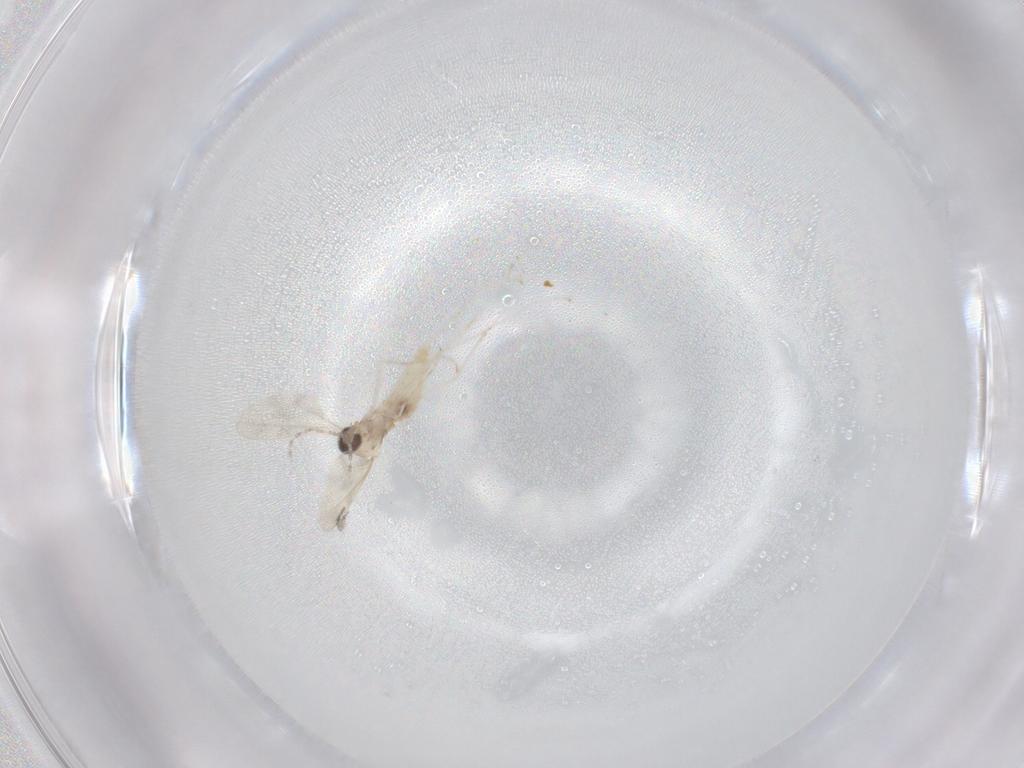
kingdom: Animalia
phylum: Arthropoda
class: Insecta
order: Diptera
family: Cecidomyiidae
